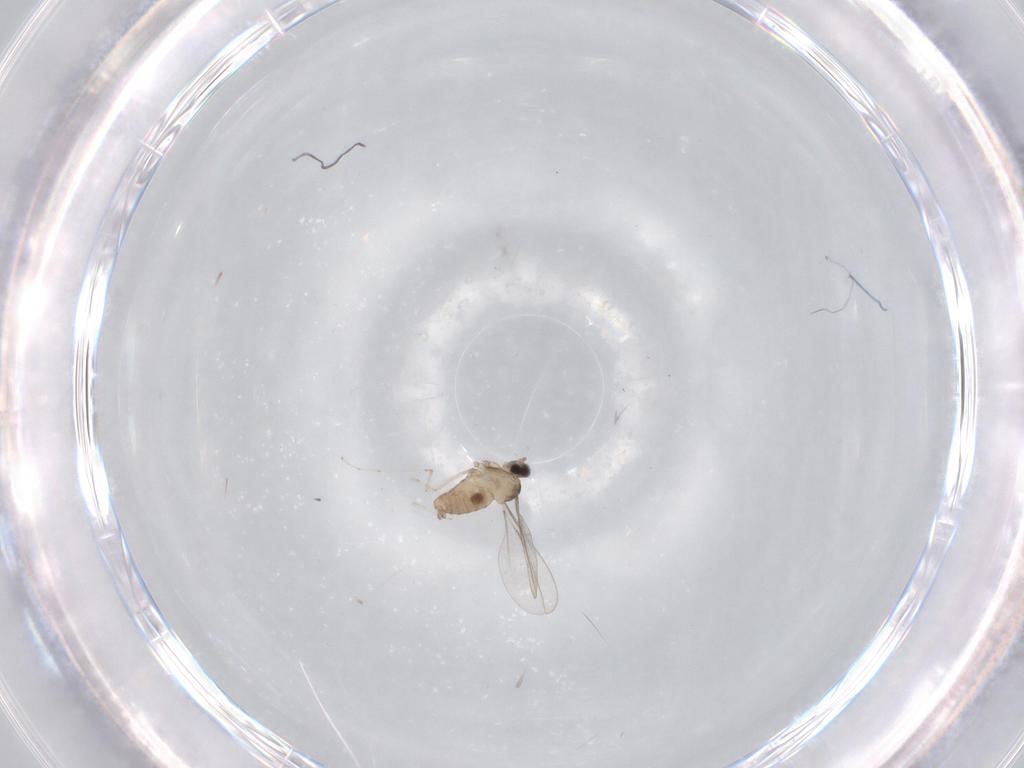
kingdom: Animalia
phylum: Arthropoda
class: Insecta
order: Diptera
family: Cecidomyiidae
